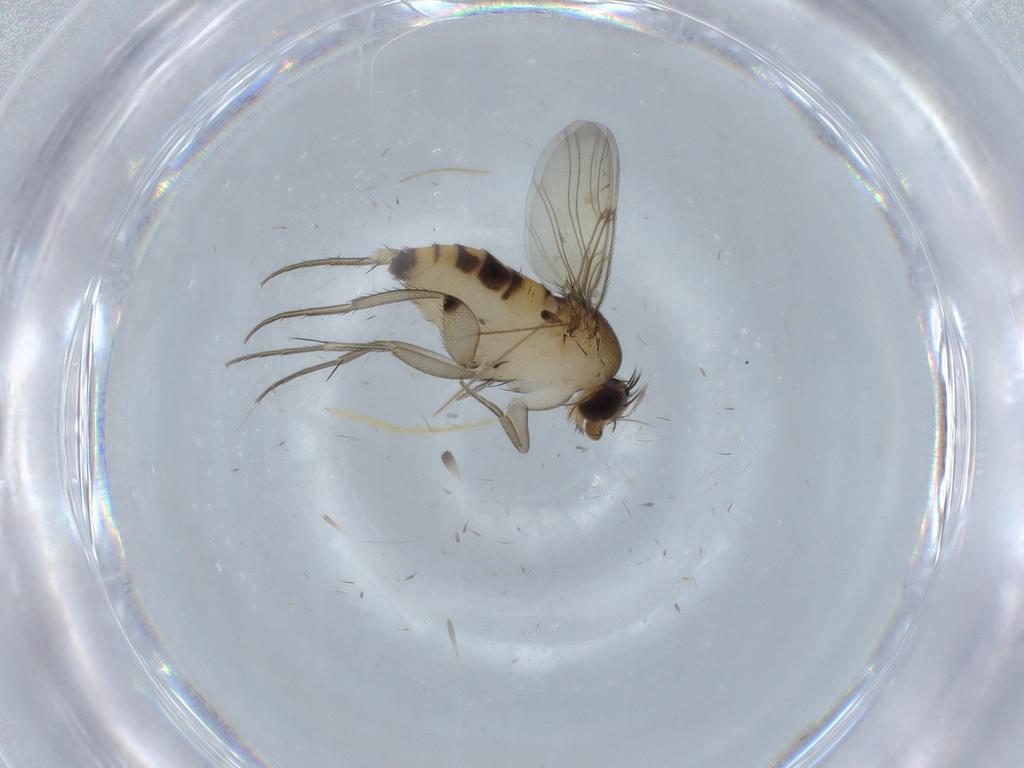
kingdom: Animalia
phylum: Arthropoda
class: Insecta
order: Diptera
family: Phoridae
